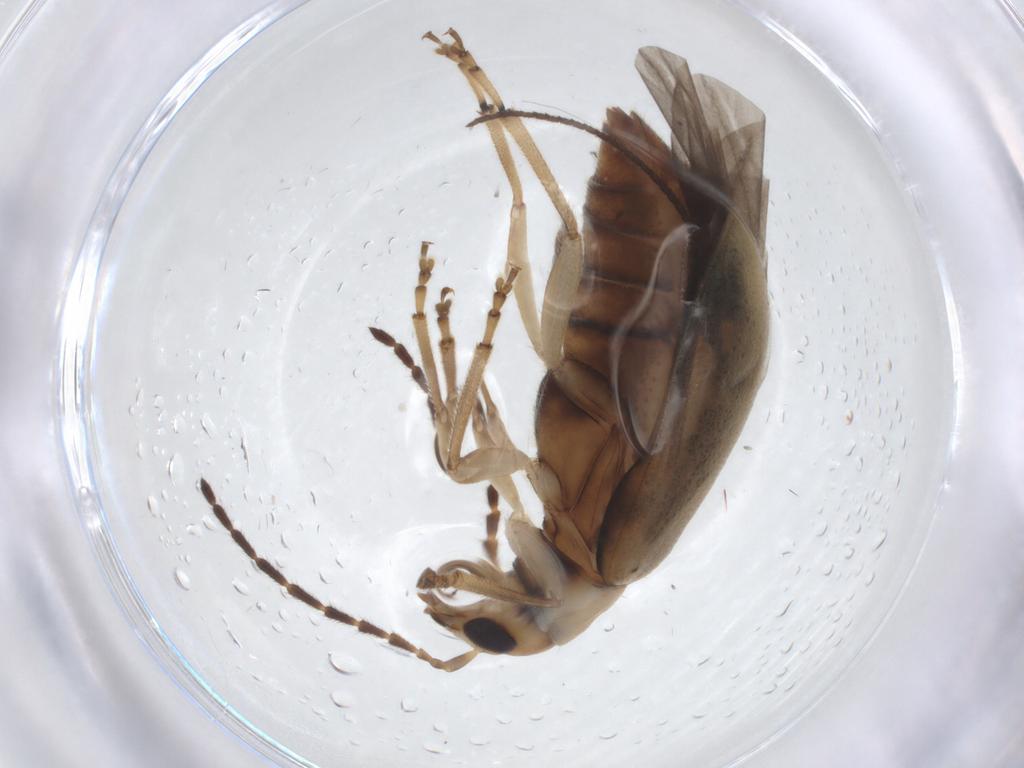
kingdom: Animalia
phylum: Arthropoda
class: Insecta
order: Coleoptera
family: Chrysomelidae
